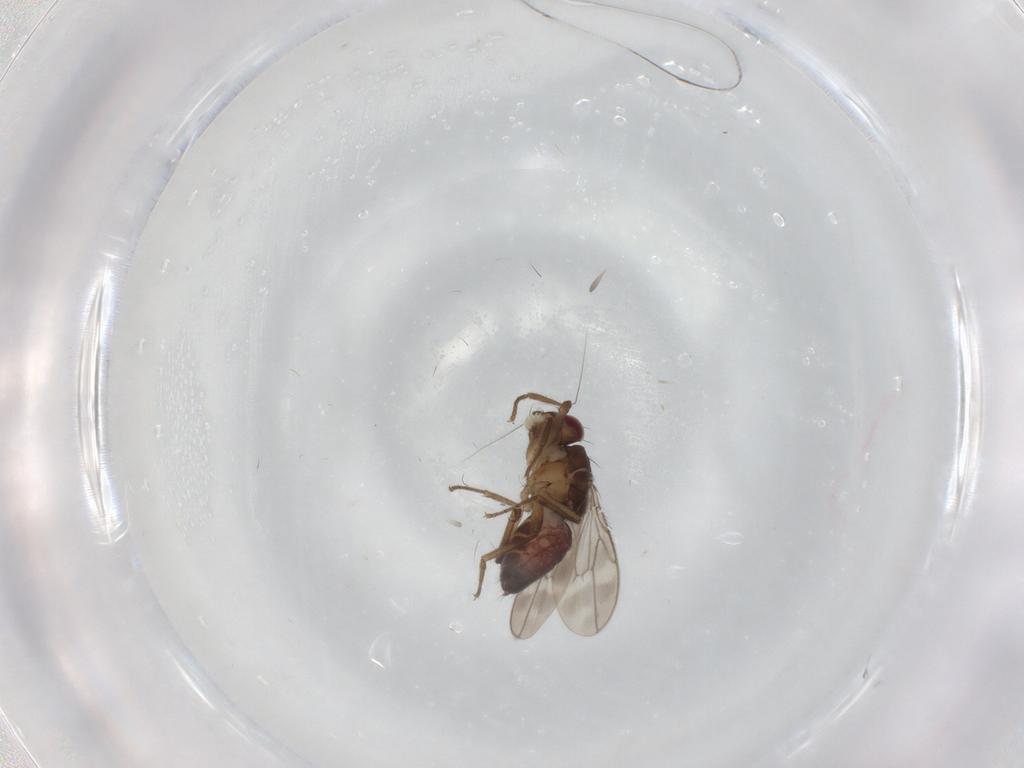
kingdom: Animalia
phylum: Arthropoda
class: Insecta
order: Diptera
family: Sphaeroceridae
